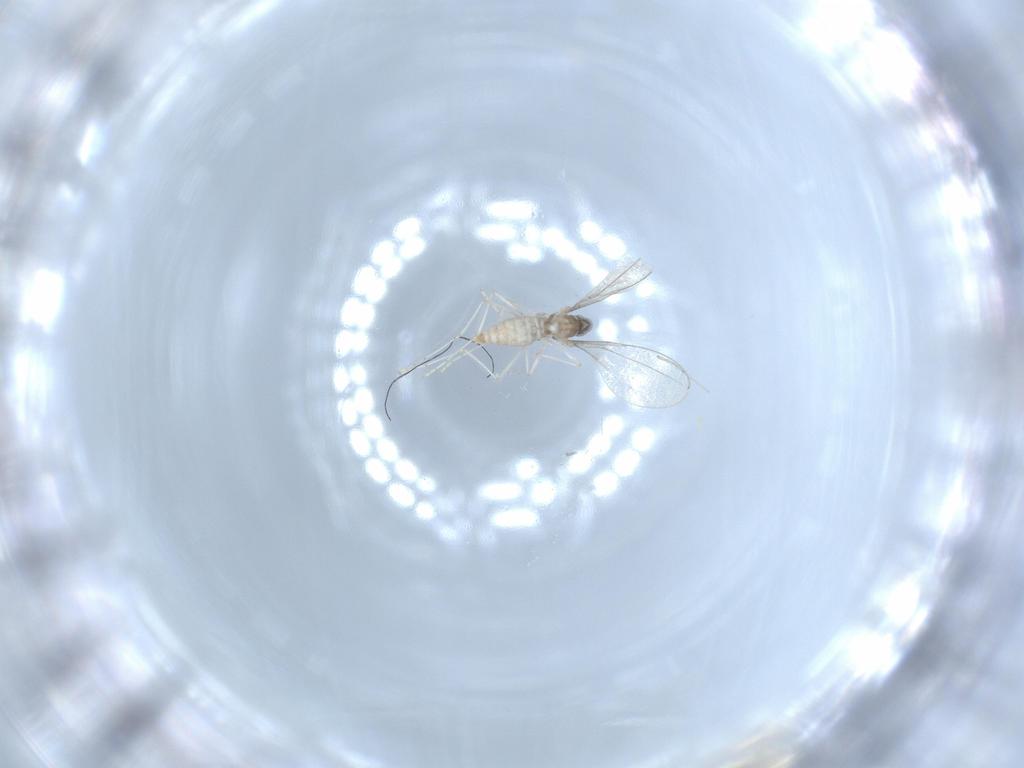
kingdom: Animalia
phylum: Arthropoda
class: Insecta
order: Diptera
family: Cecidomyiidae
